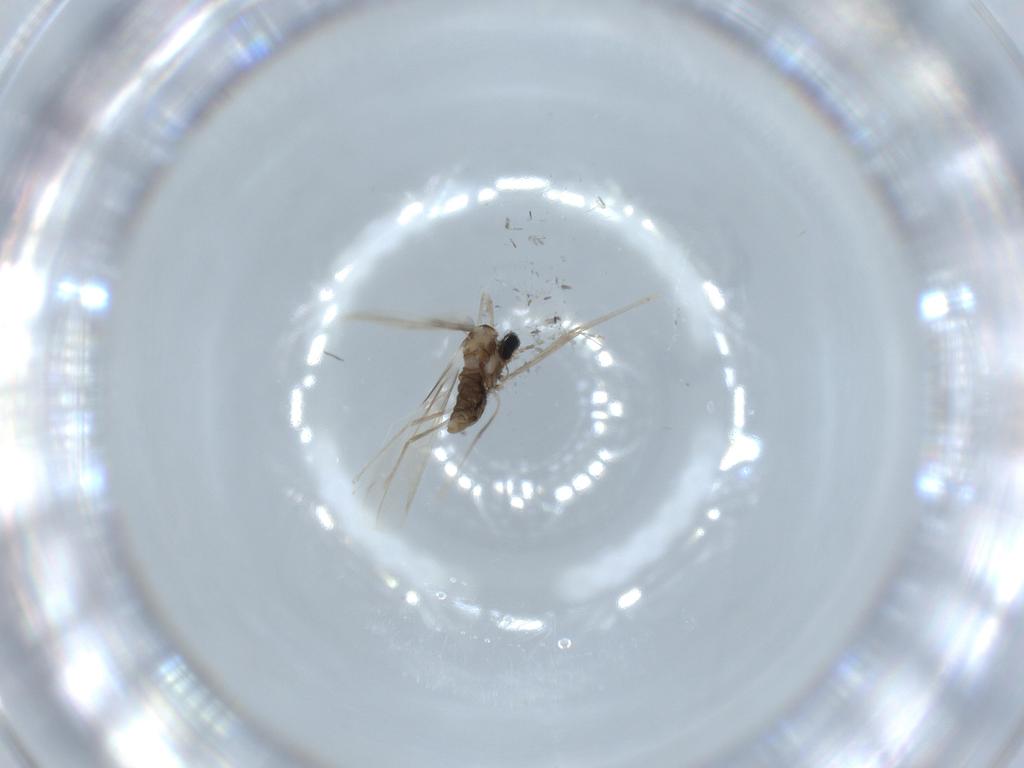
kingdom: Animalia
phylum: Arthropoda
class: Insecta
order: Diptera
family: Cecidomyiidae
